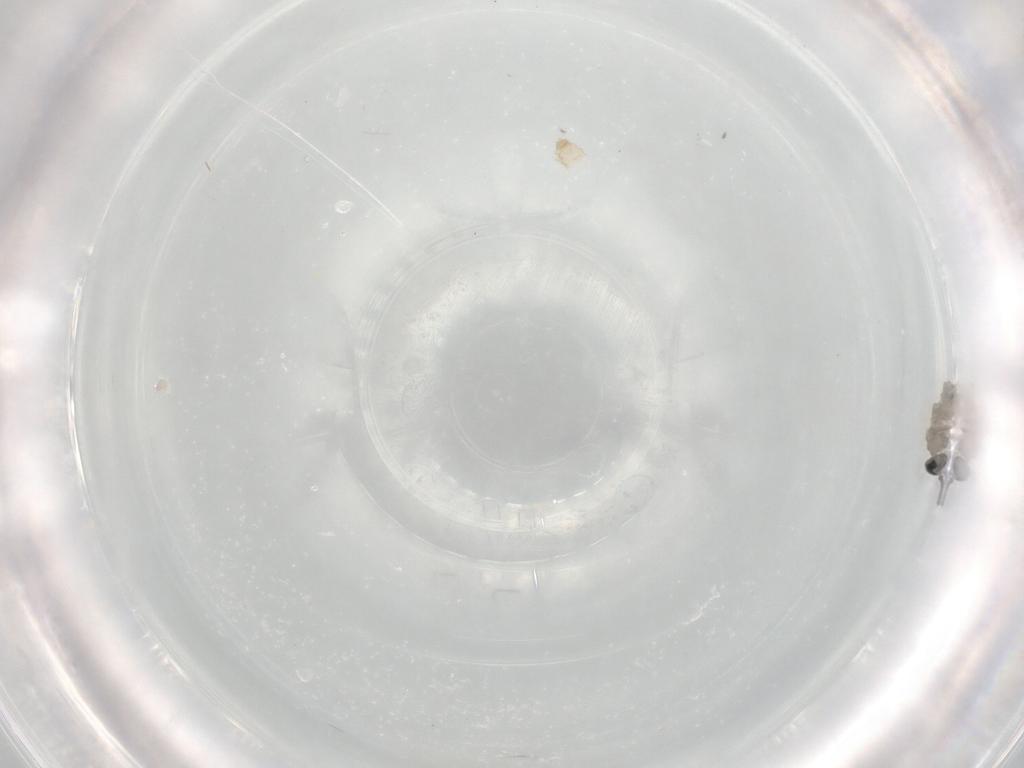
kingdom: Animalia
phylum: Arthropoda
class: Insecta
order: Diptera
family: Cecidomyiidae
